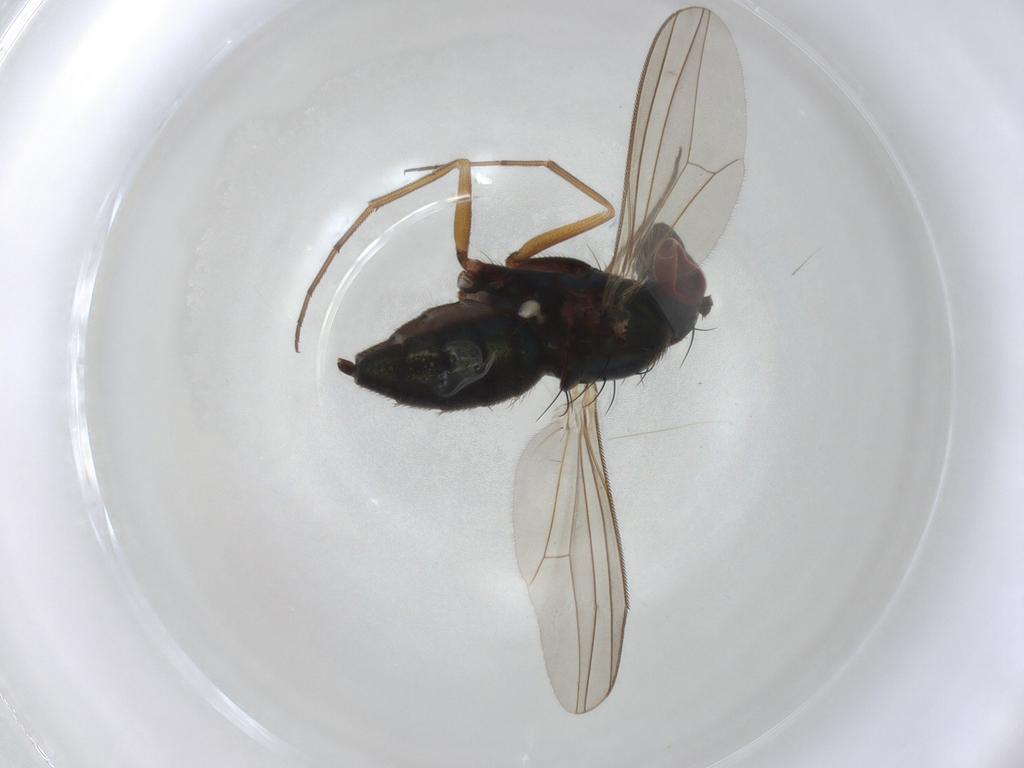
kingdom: Animalia
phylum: Arthropoda
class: Insecta
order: Diptera
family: Dolichopodidae
